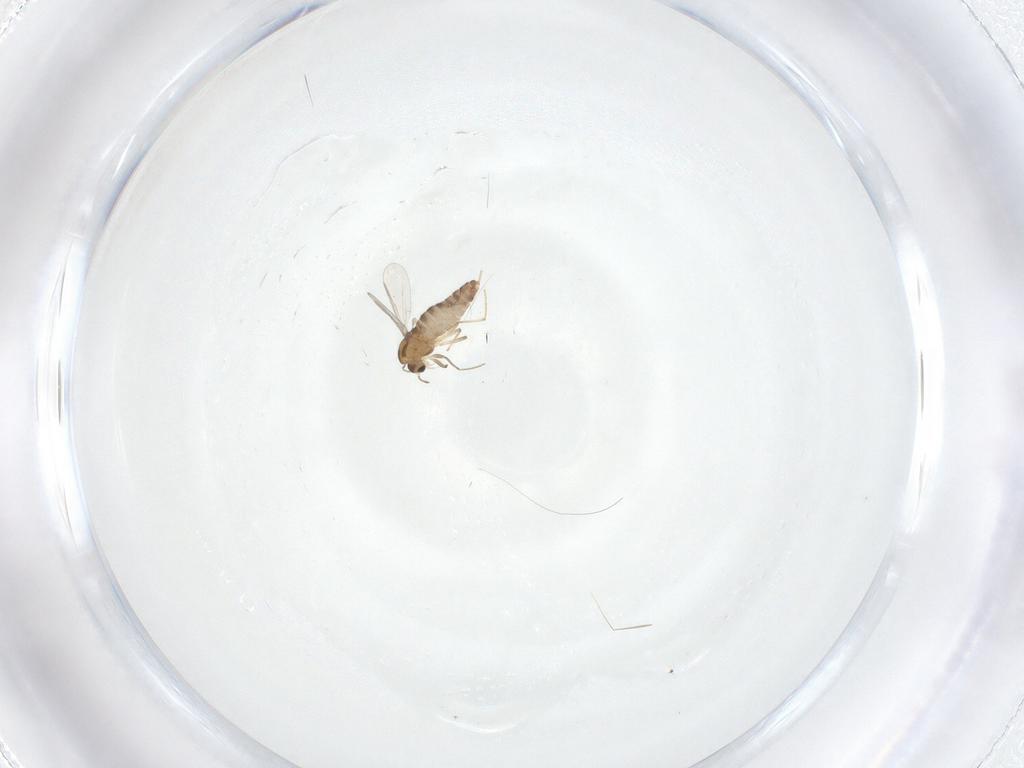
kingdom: Animalia
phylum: Arthropoda
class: Insecta
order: Diptera
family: Chironomidae
